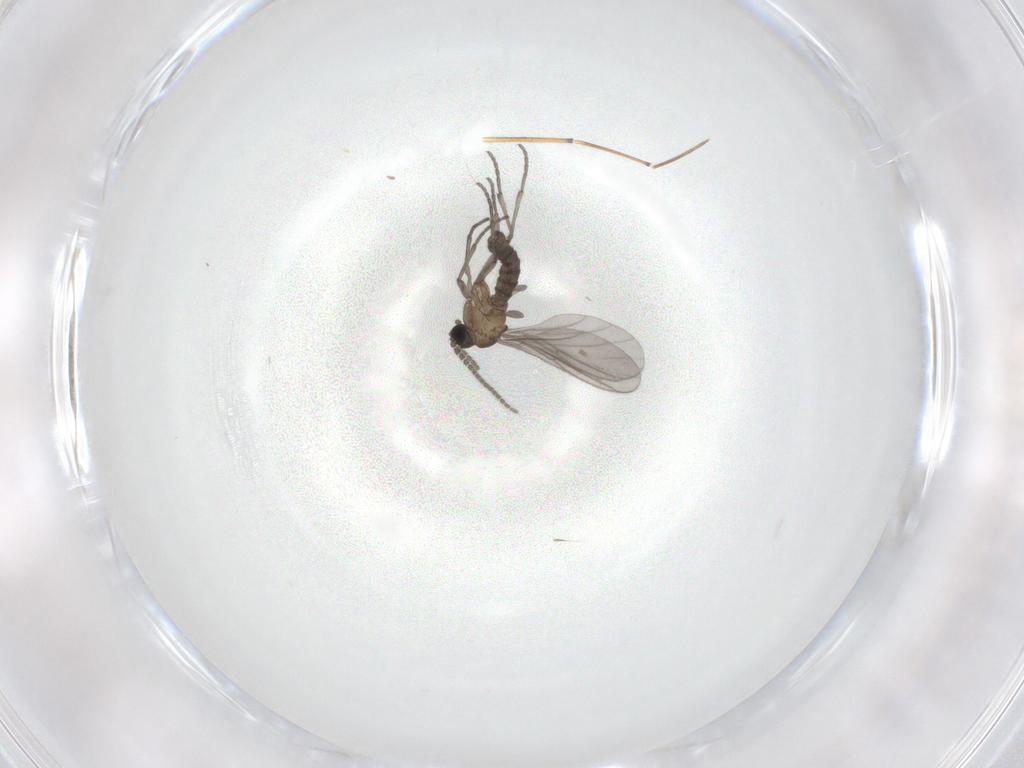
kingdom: Animalia
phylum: Arthropoda
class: Insecta
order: Diptera
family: Sciaridae
